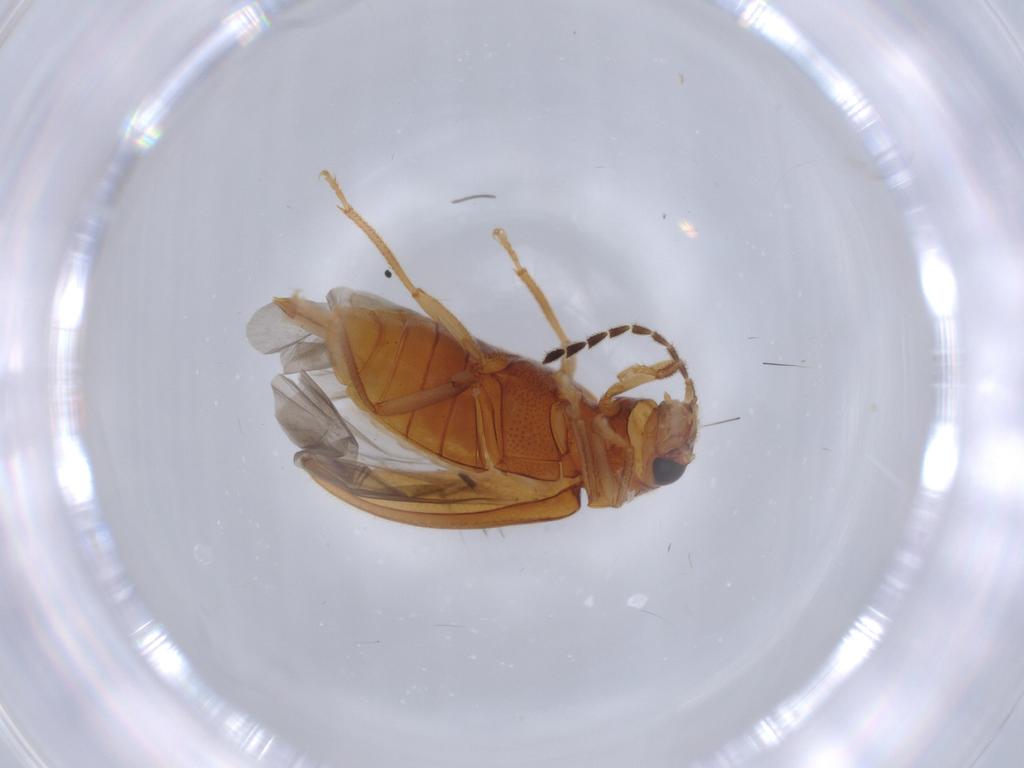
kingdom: Animalia
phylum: Arthropoda
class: Insecta
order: Coleoptera
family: Ptilodactylidae
